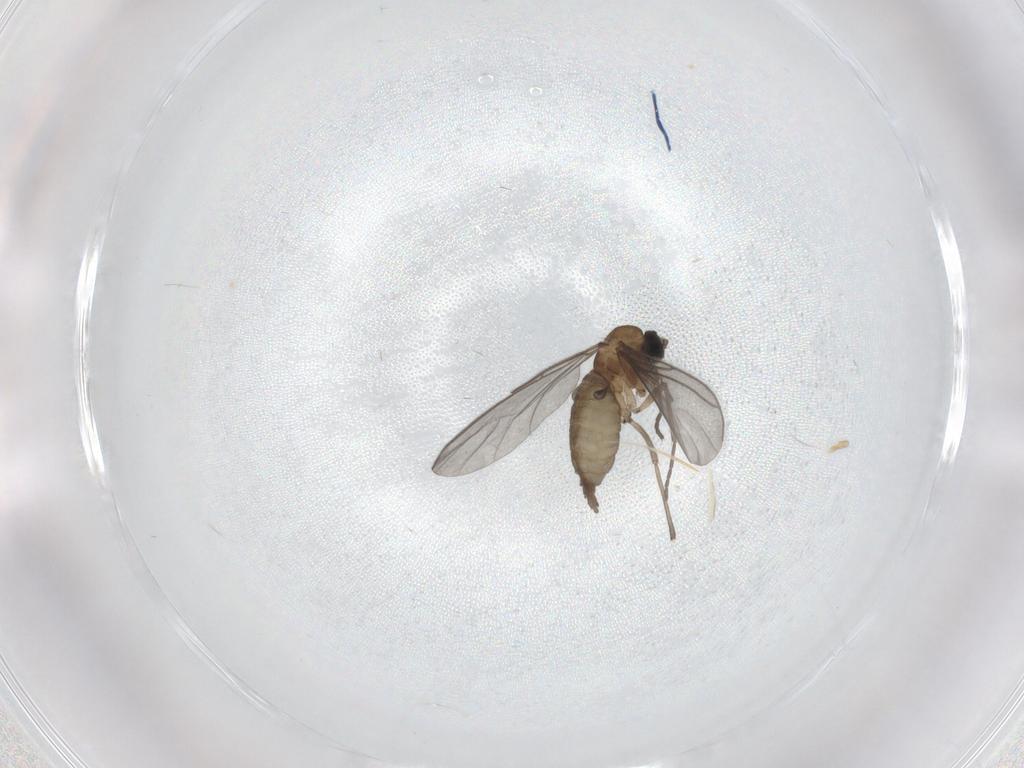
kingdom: Animalia
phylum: Arthropoda
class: Insecta
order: Diptera
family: Sciaridae
